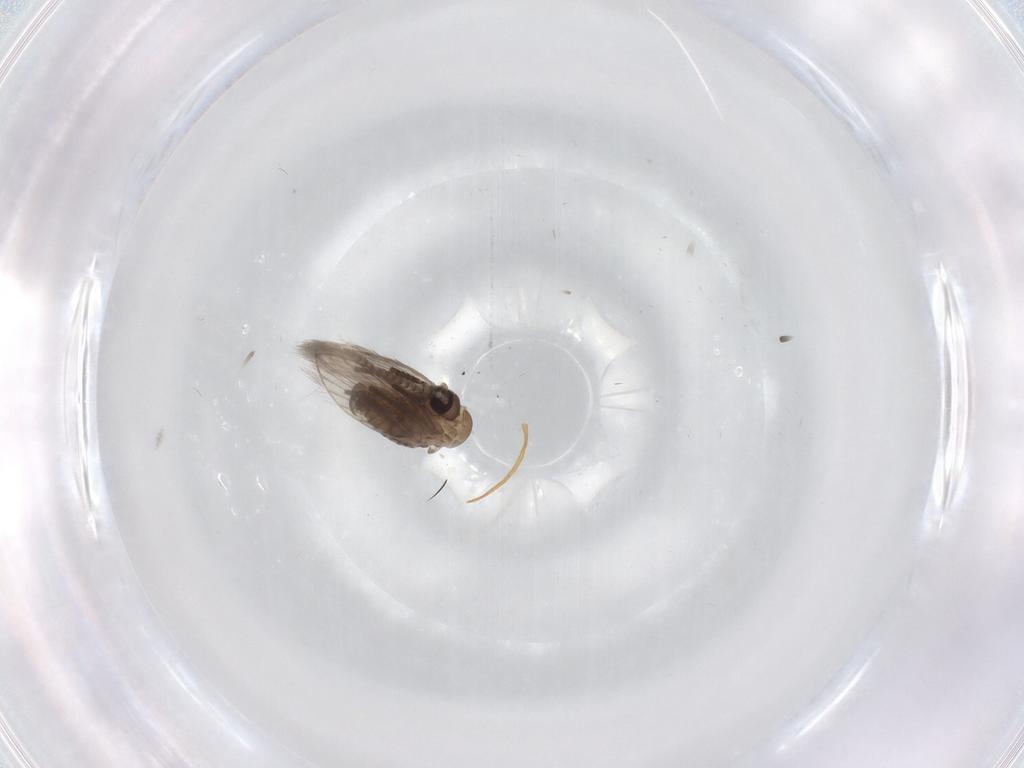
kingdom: Animalia
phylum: Arthropoda
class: Insecta
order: Diptera
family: Psychodidae
